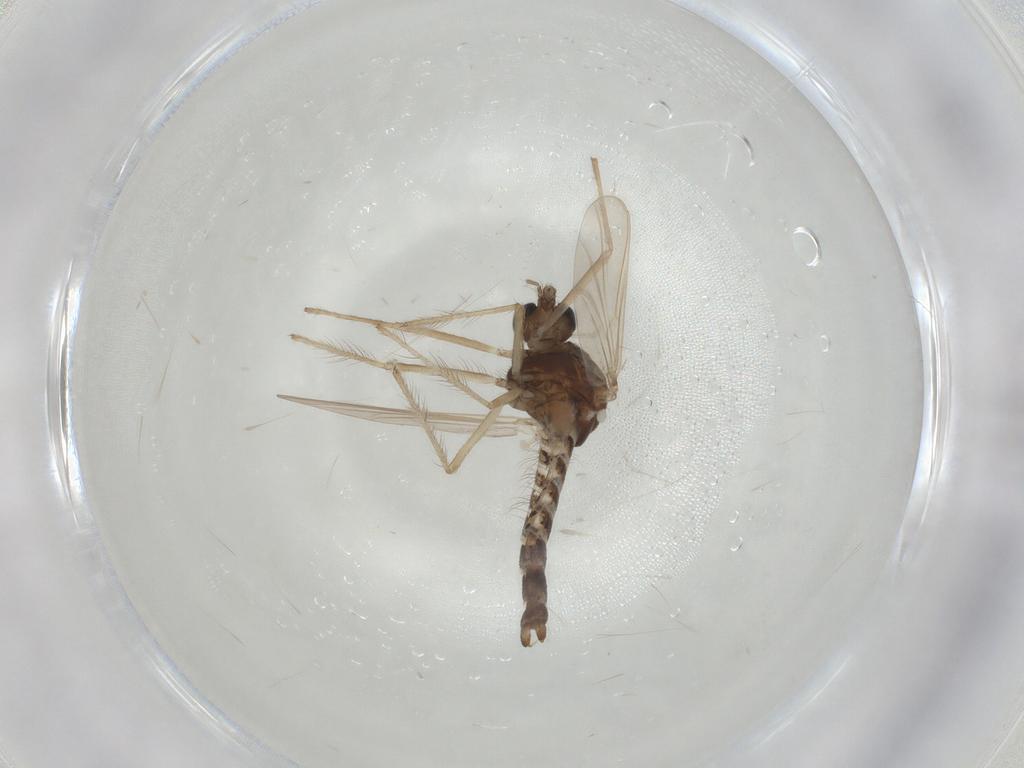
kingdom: Animalia
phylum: Arthropoda
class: Insecta
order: Diptera
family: Chironomidae
